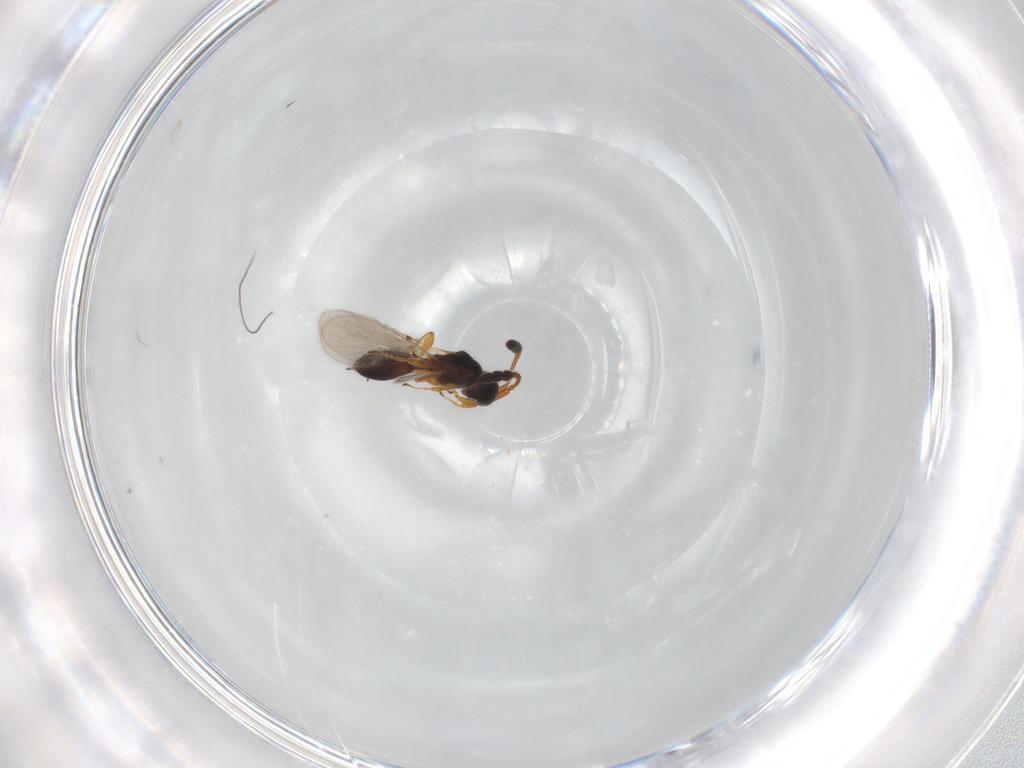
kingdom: Animalia
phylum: Arthropoda
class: Insecta
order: Hymenoptera
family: Diapriidae
